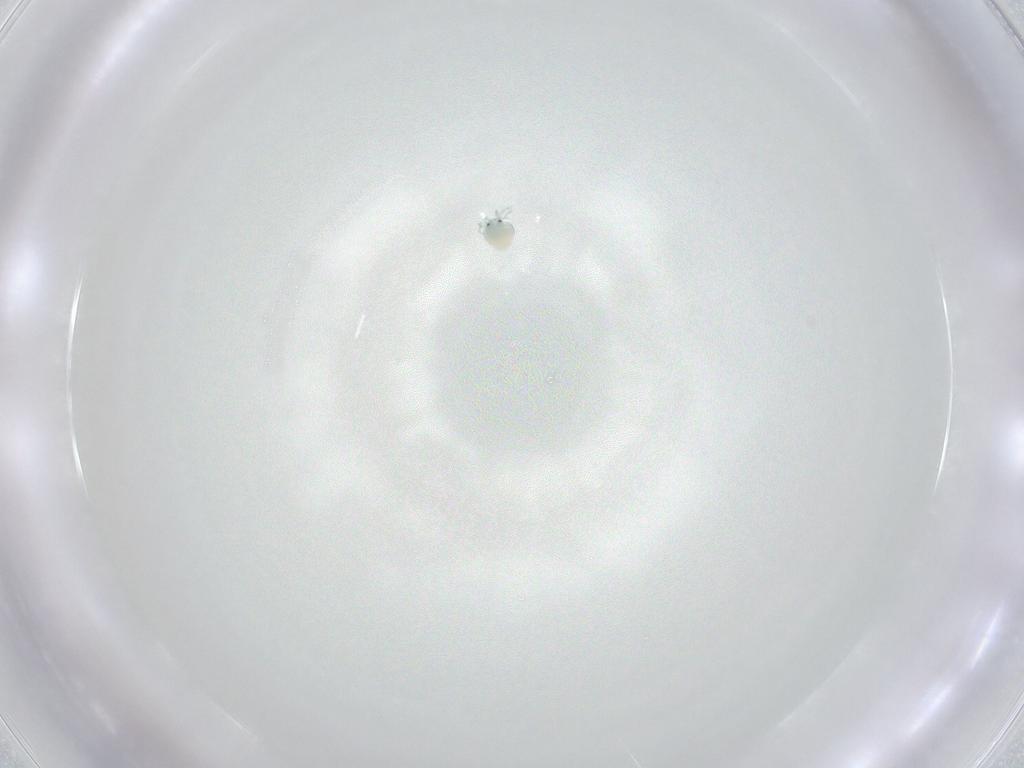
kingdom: Animalia
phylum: Arthropoda
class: Arachnida
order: Trombidiformes
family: Arrenuridae
